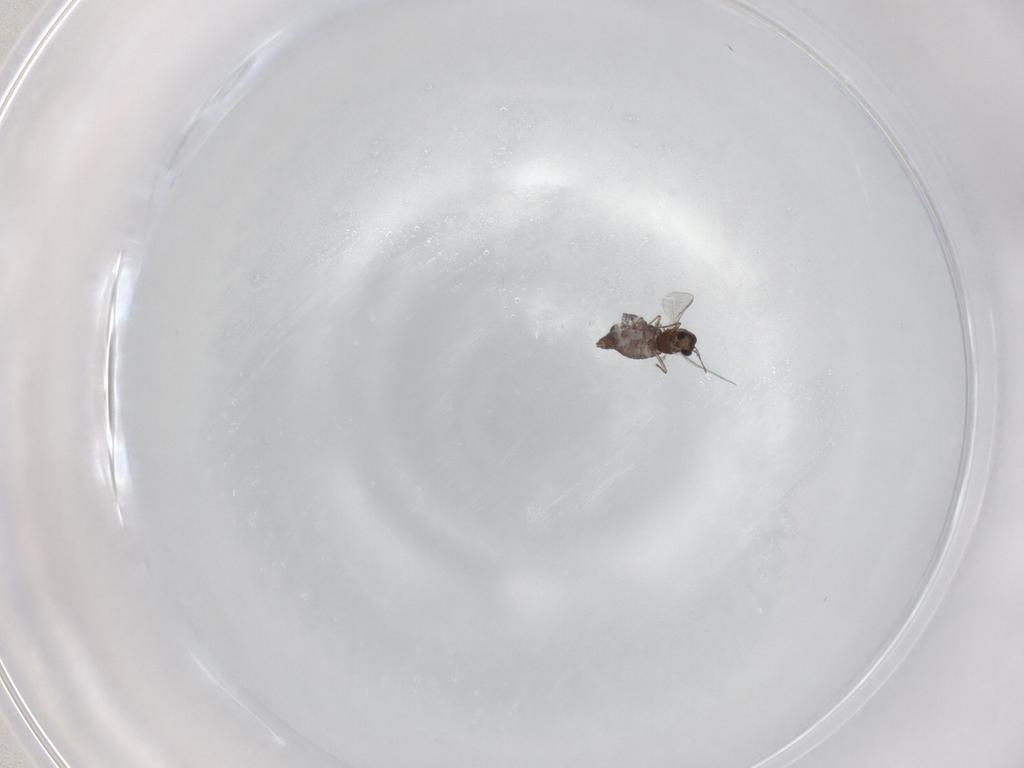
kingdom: Animalia
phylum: Arthropoda
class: Insecta
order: Diptera
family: Chironomidae
